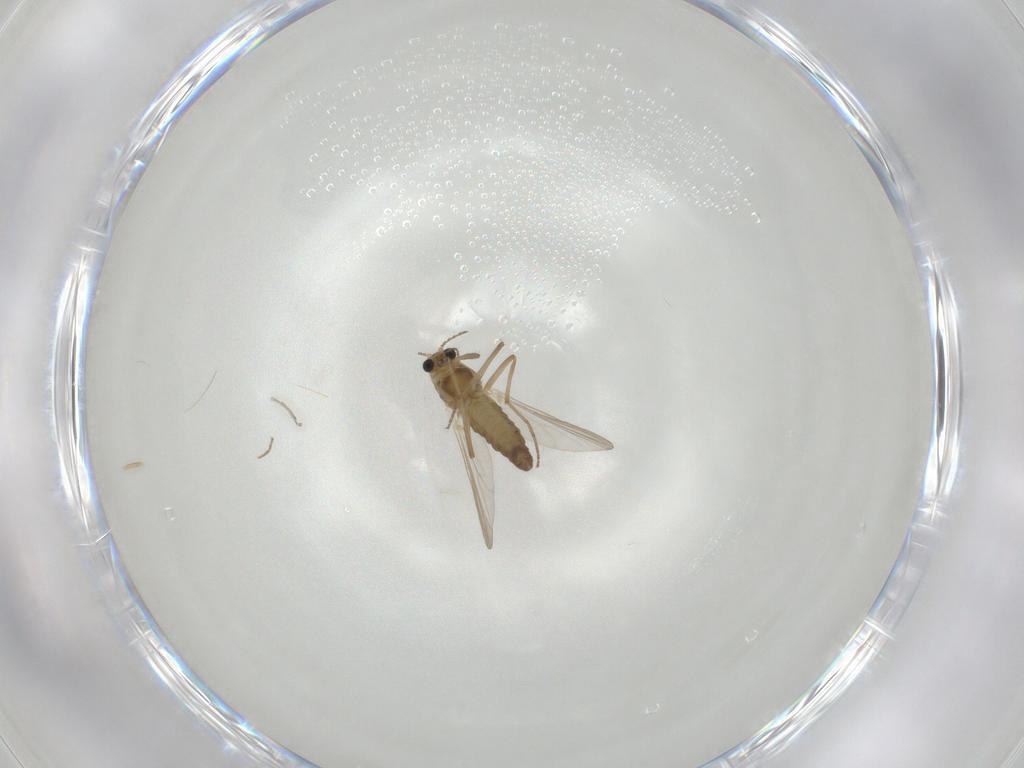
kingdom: Animalia
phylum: Arthropoda
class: Insecta
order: Diptera
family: Chironomidae
